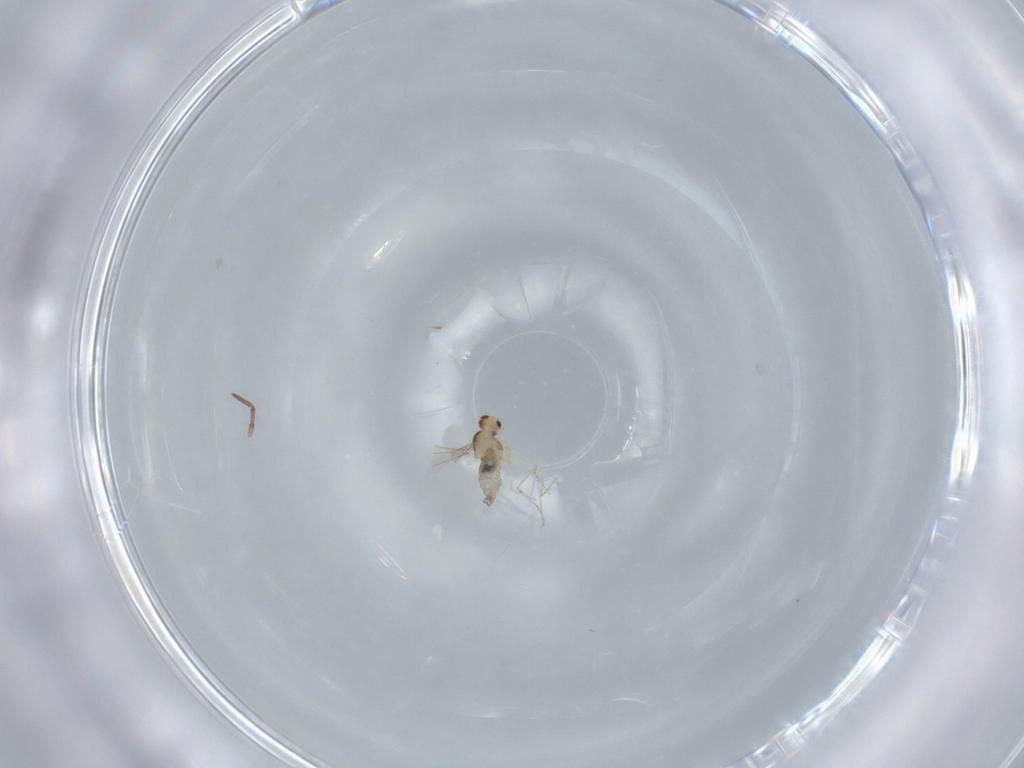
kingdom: Animalia
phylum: Arthropoda
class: Insecta
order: Diptera
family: Cecidomyiidae
